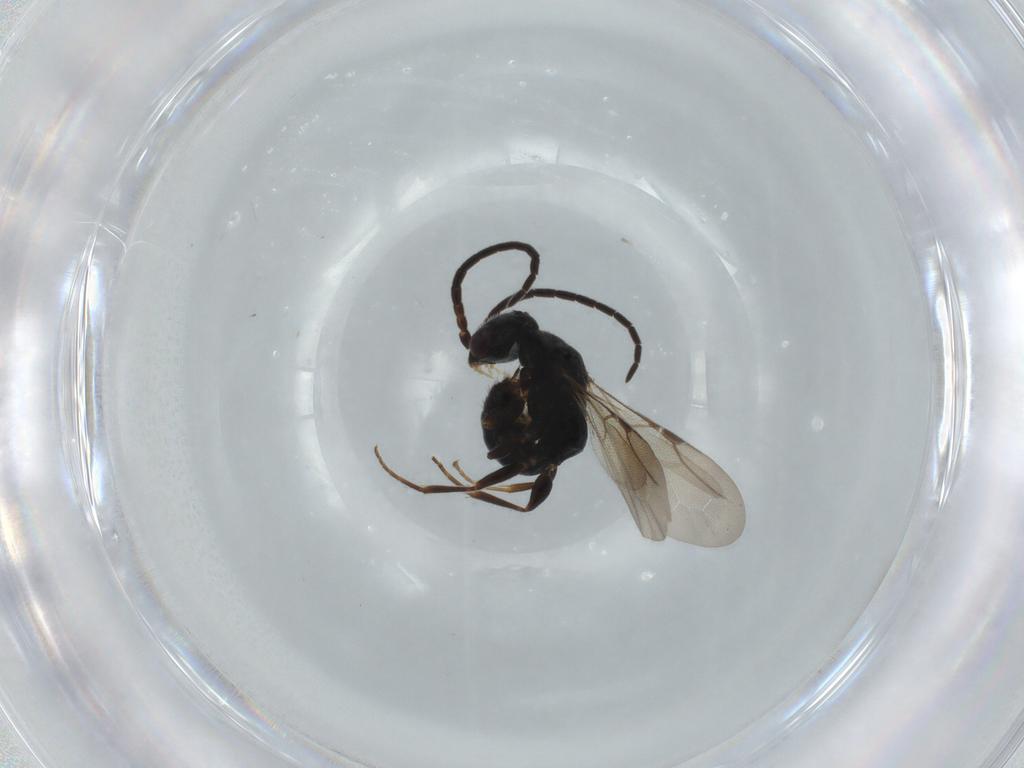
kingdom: Animalia
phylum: Arthropoda
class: Insecta
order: Hymenoptera
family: Bethylidae
